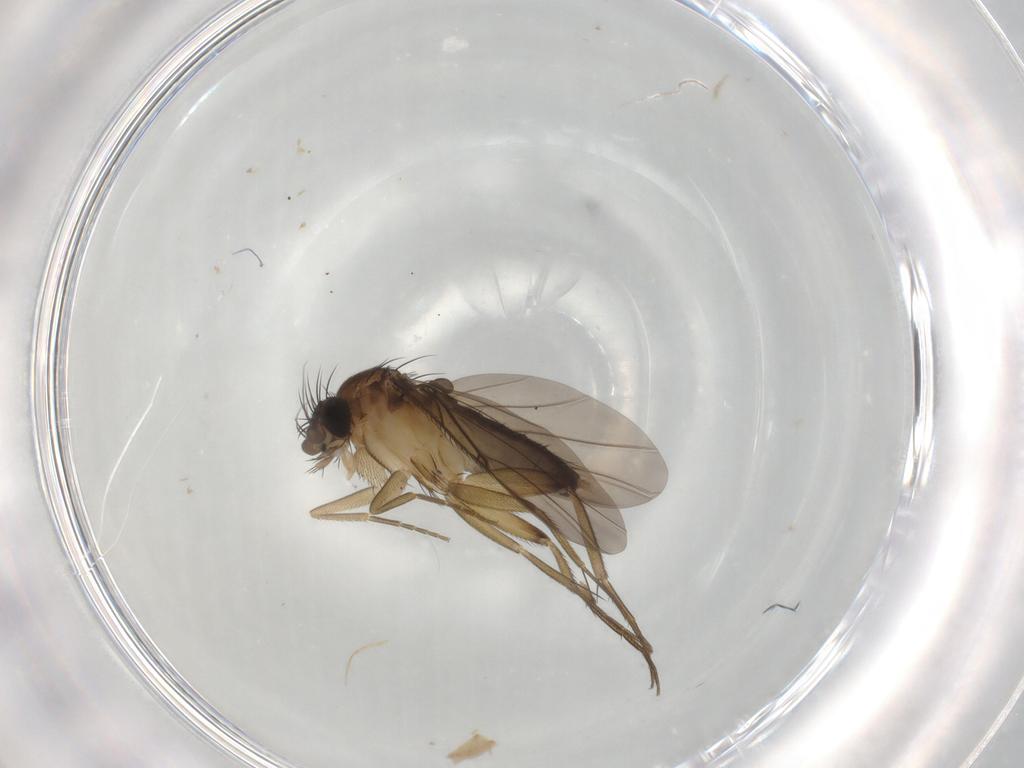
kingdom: Animalia
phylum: Arthropoda
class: Insecta
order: Diptera
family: Phoridae
